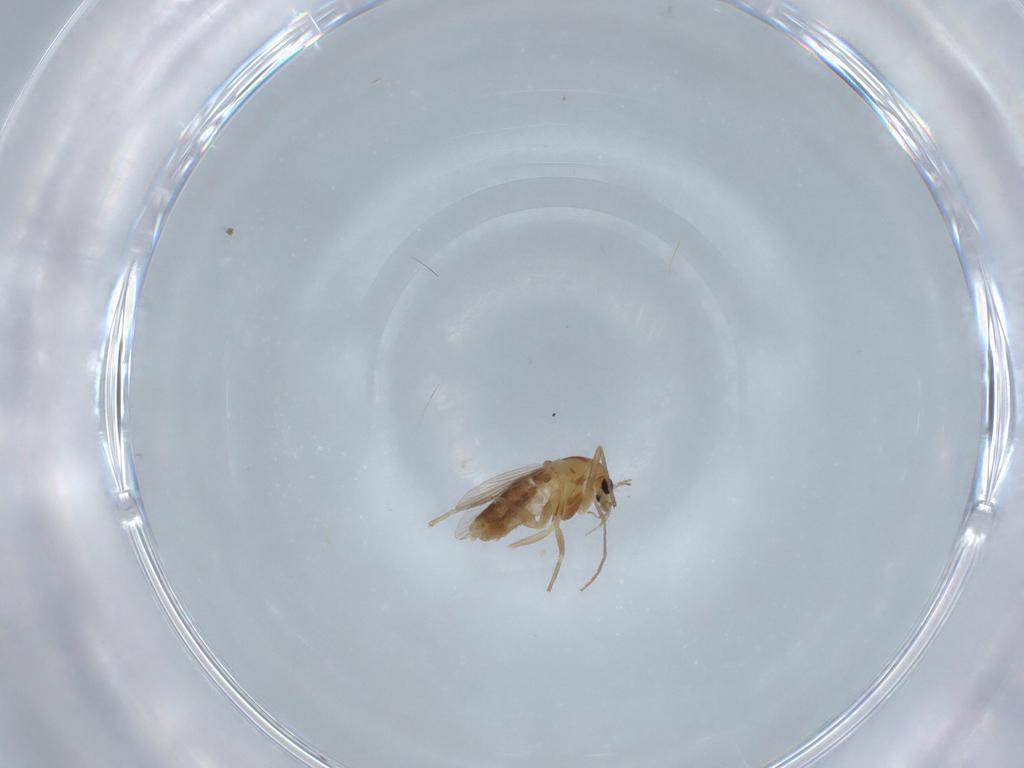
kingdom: Animalia
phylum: Arthropoda
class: Insecta
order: Diptera
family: Chironomidae
